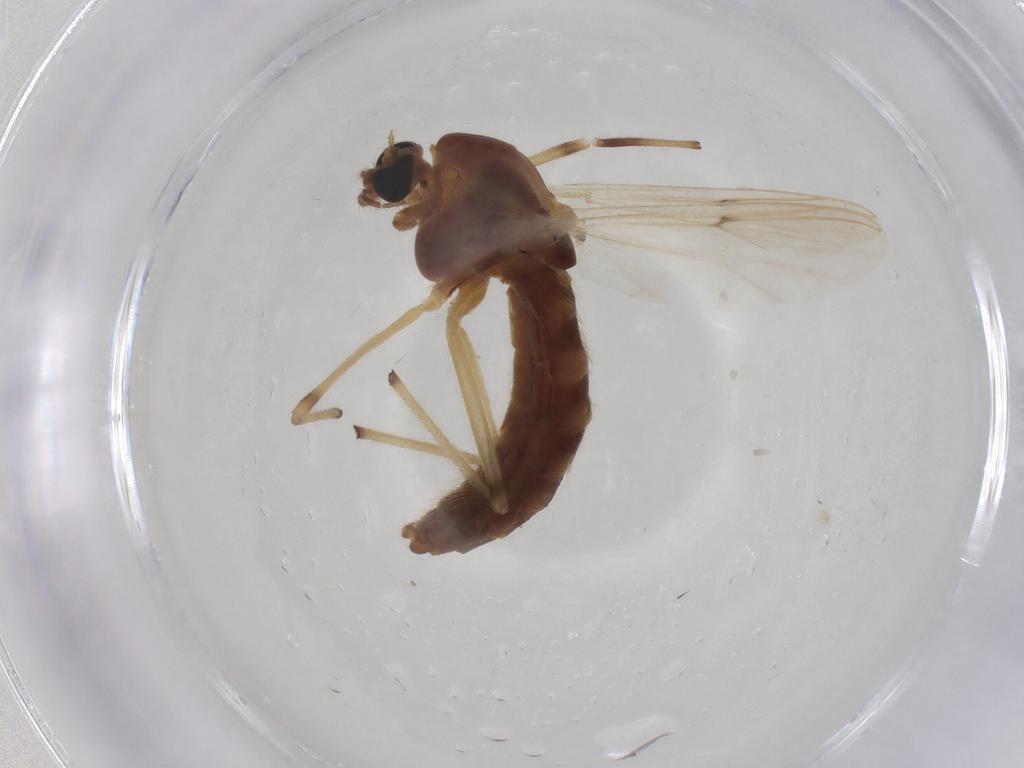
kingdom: Animalia
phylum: Arthropoda
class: Insecta
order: Diptera
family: Chironomidae
